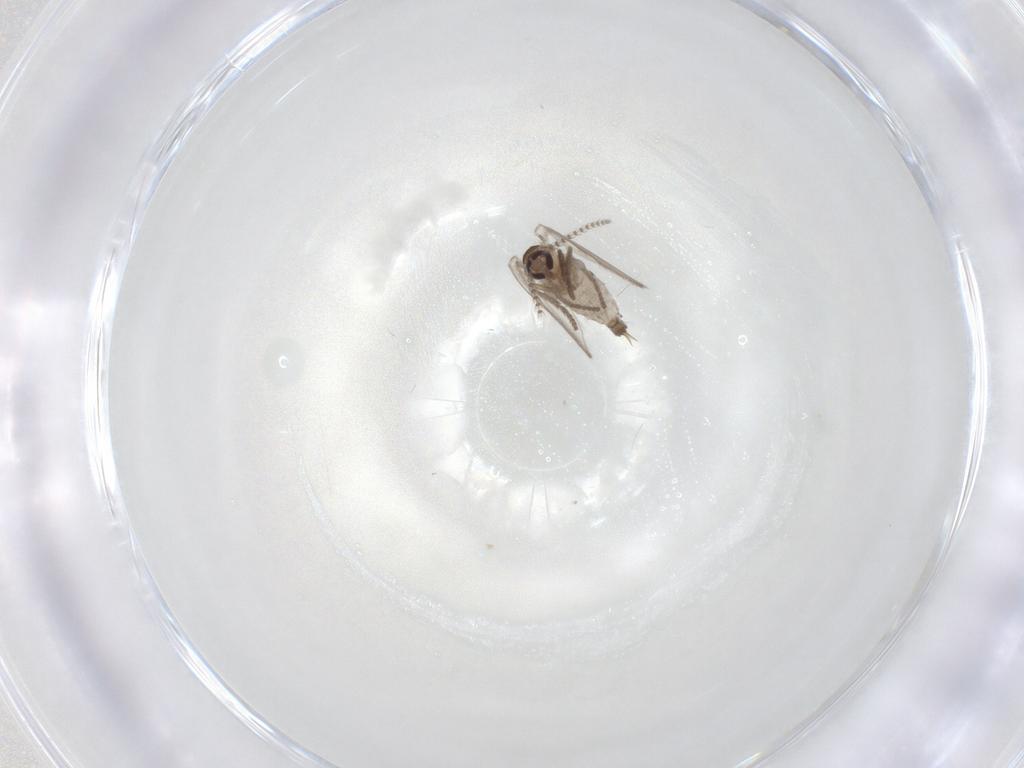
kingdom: Animalia
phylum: Arthropoda
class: Insecta
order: Diptera
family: Psychodidae
